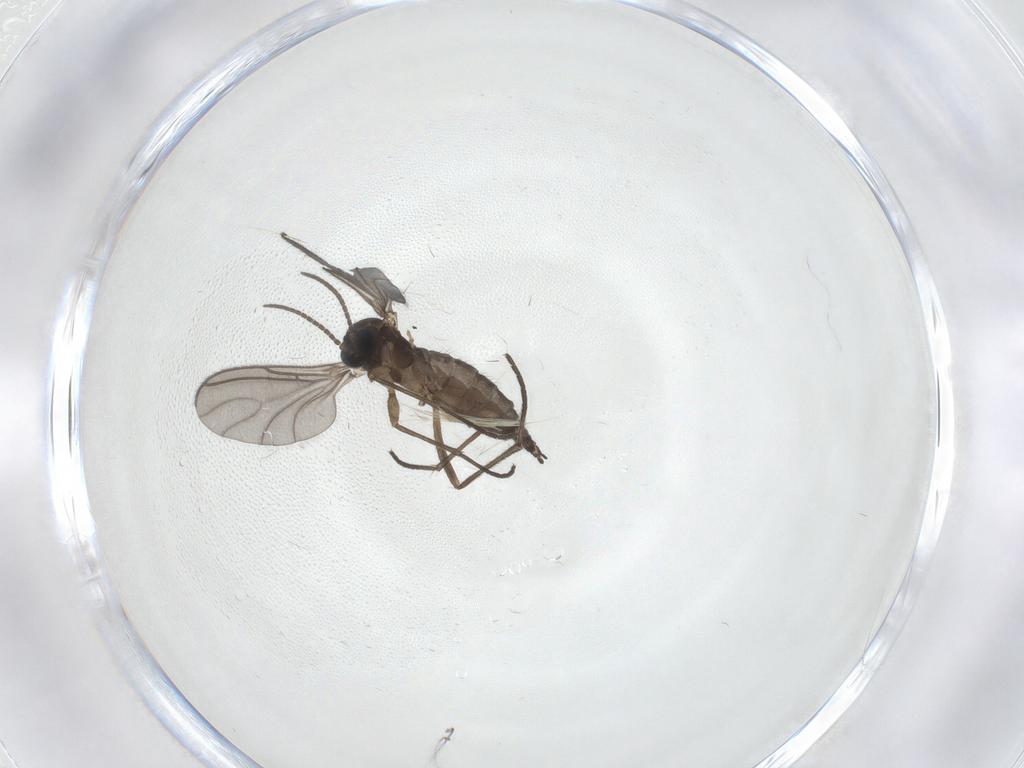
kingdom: Animalia
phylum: Arthropoda
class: Insecta
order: Diptera
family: Sciaridae
